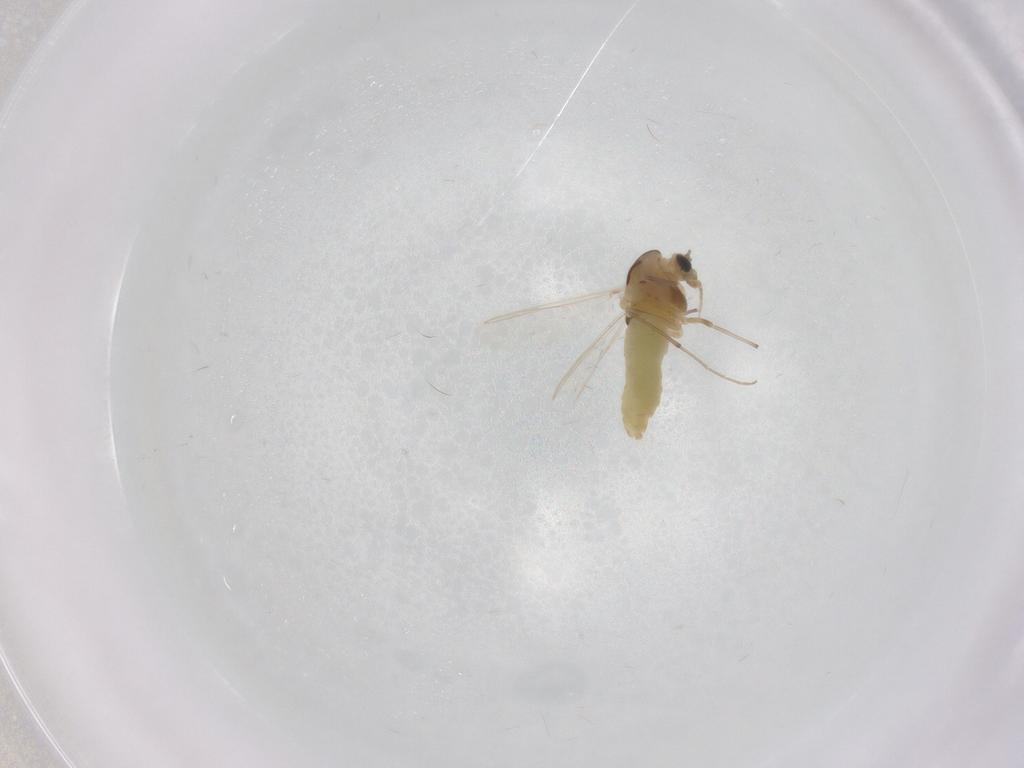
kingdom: Animalia
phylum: Arthropoda
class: Insecta
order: Diptera
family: Chironomidae
